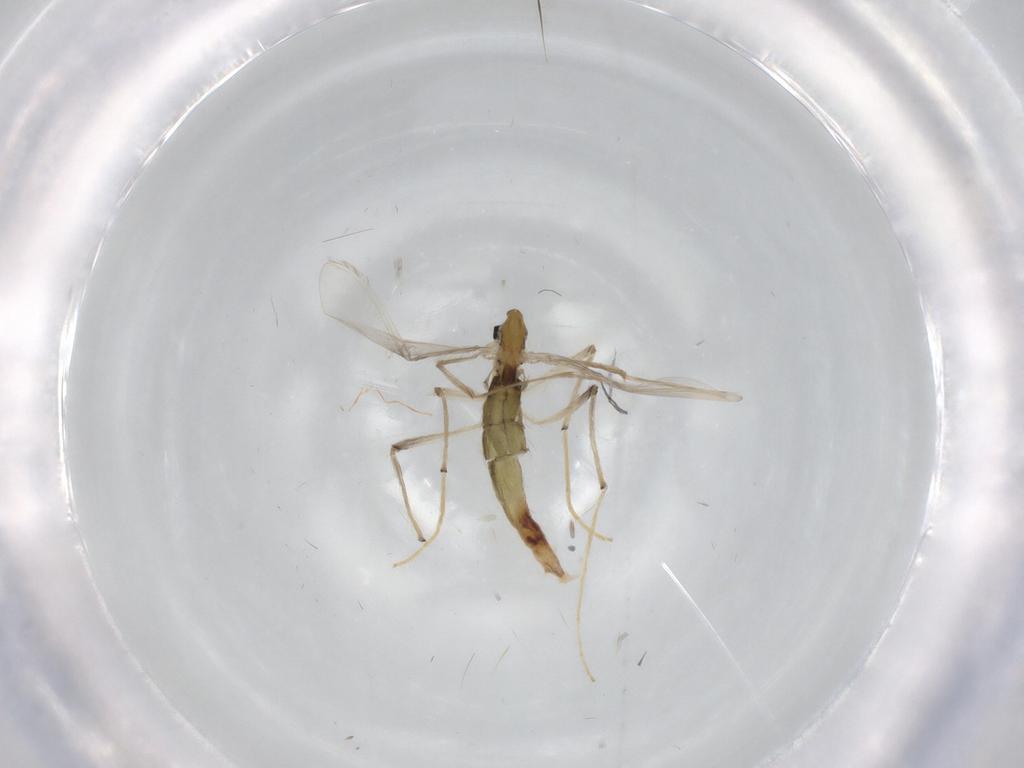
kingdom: Animalia
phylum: Arthropoda
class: Insecta
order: Diptera
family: Chironomidae
